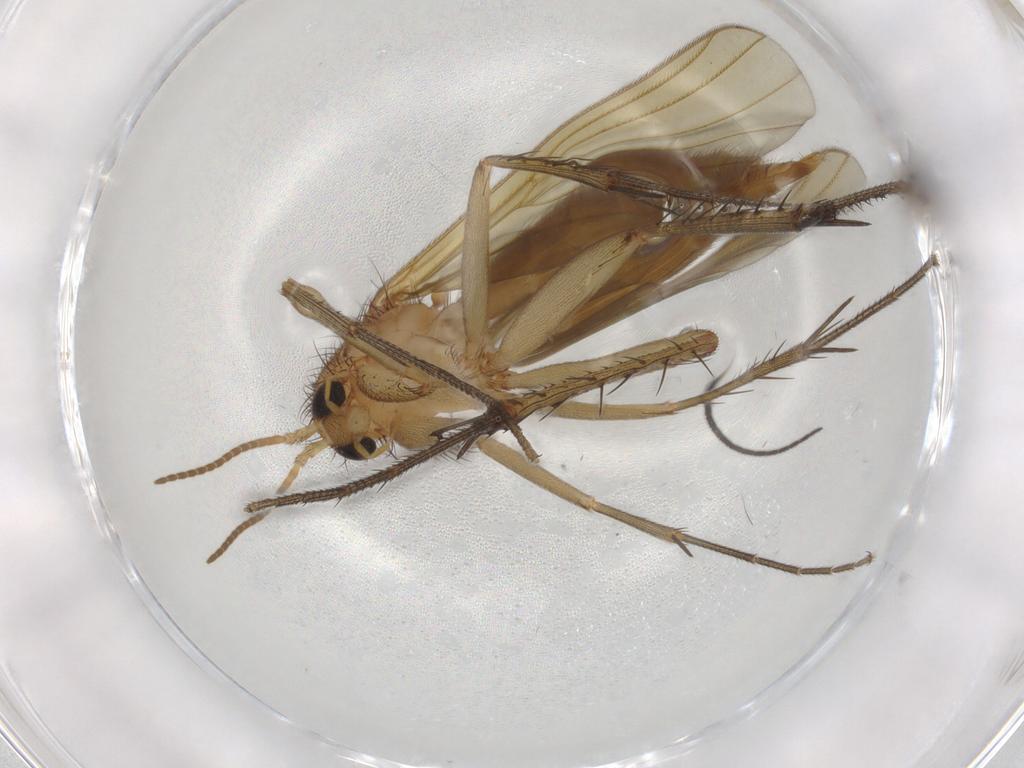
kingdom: Animalia
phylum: Arthropoda
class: Insecta
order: Diptera
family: Mycetophilidae
